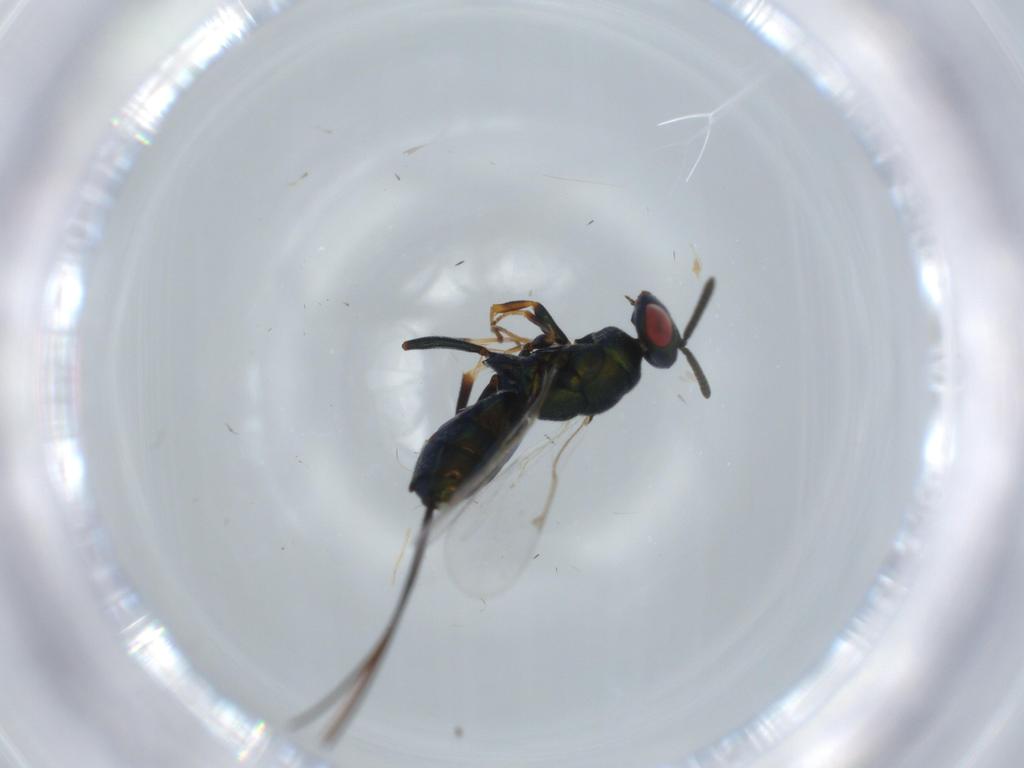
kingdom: Animalia
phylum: Arthropoda
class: Insecta
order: Hymenoptera
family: Torymidae
